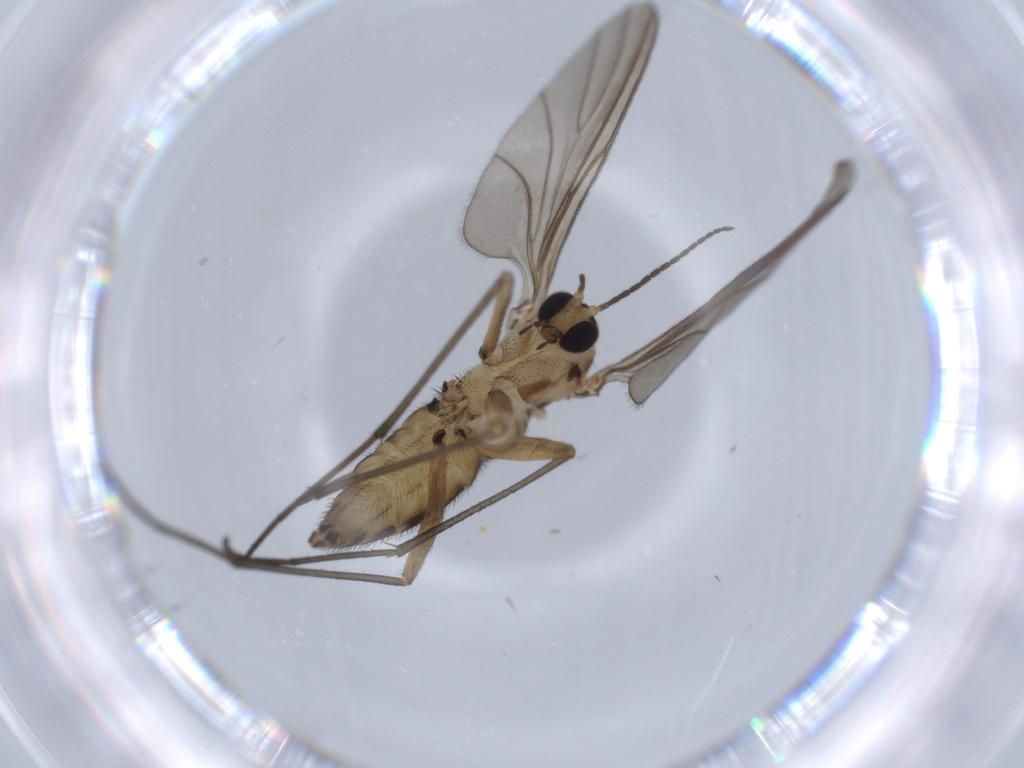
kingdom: Animalia
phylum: Arthropoda
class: Insecta
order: Diptera
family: Sciaridae
